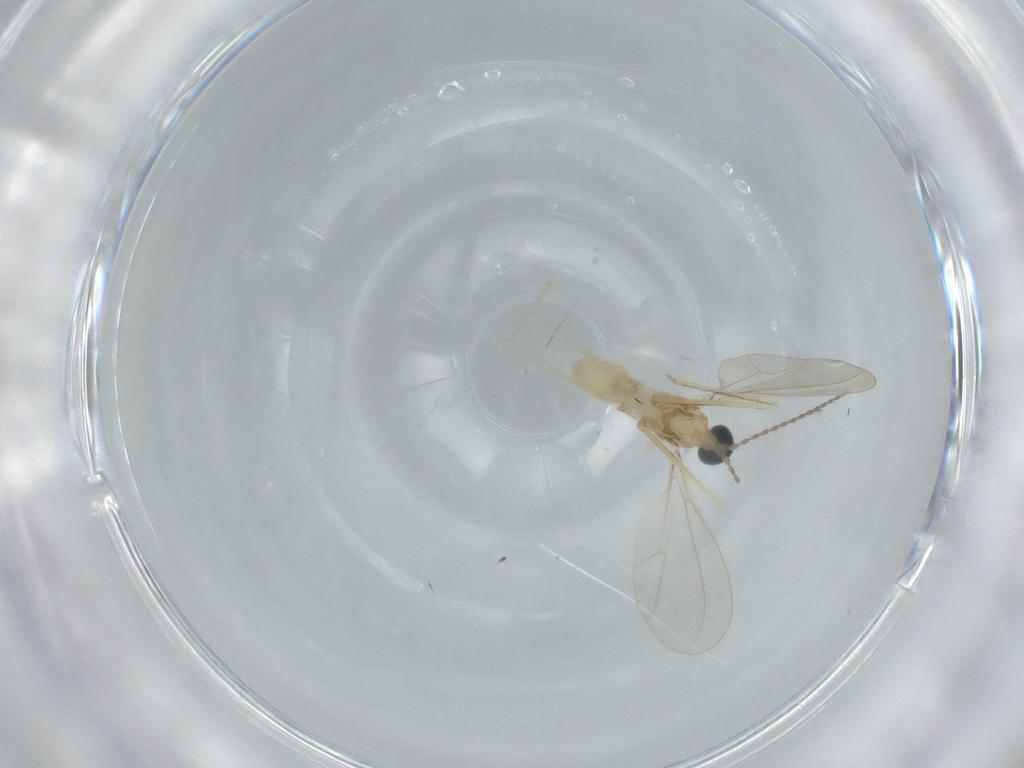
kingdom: Animalia
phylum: Arthropoda
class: Insecta
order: Diptera
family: Cecidomyiidae
